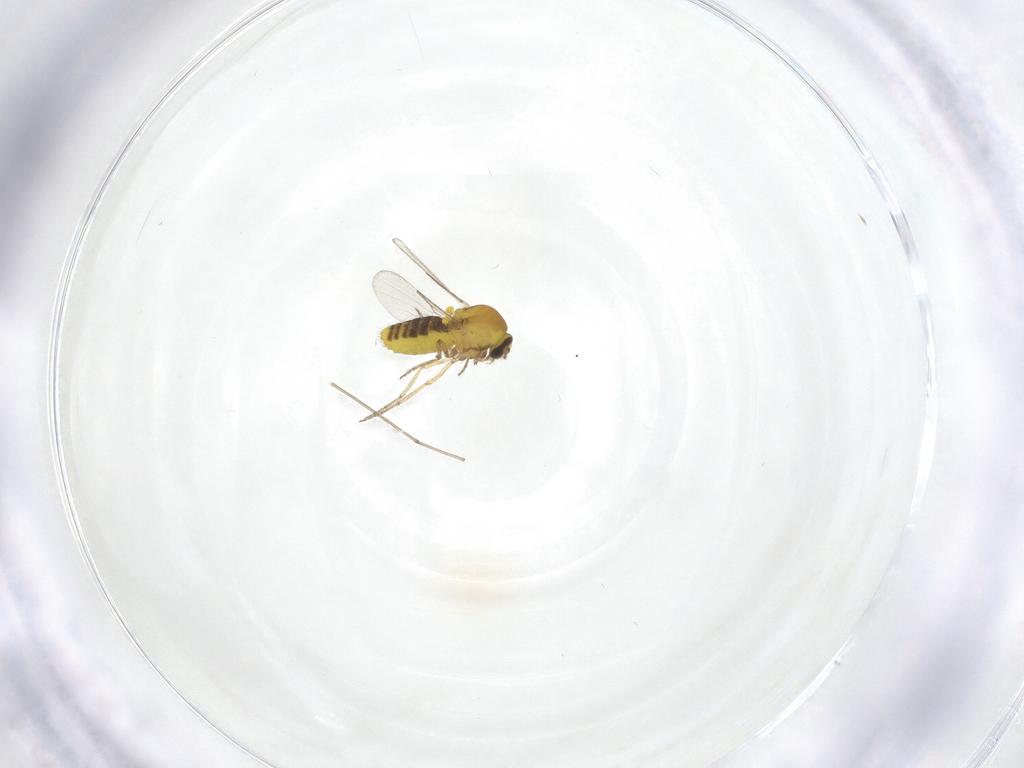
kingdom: Animalia
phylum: Arthropoda
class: Insecta
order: Diptera
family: Ceratopogonidae
